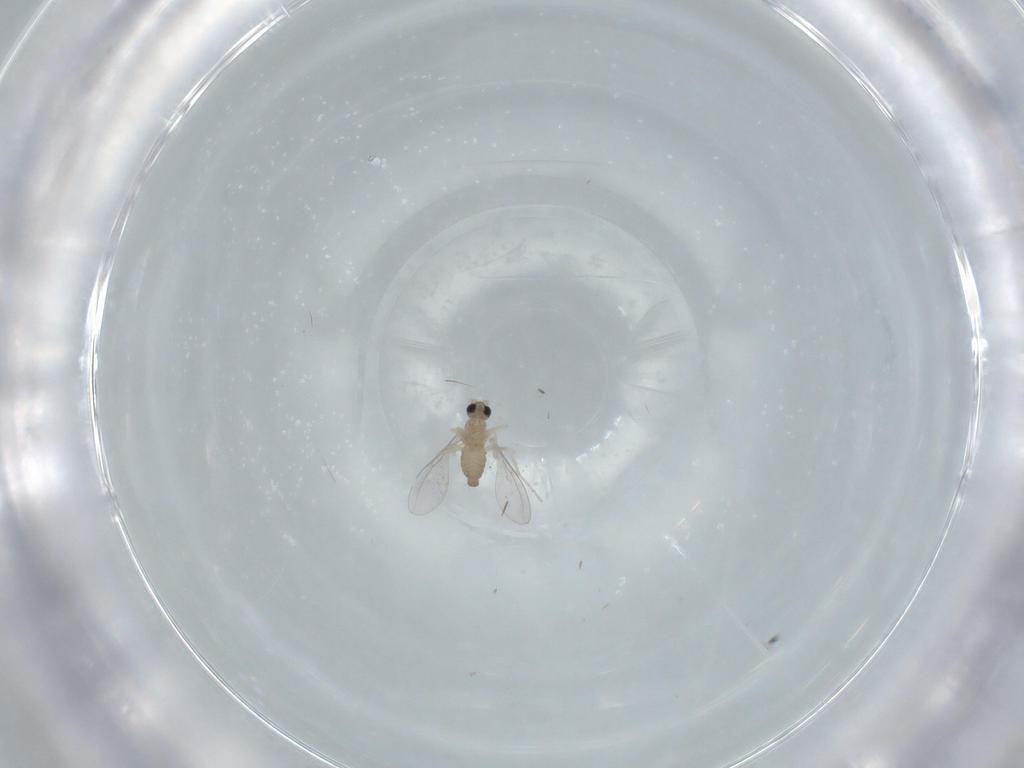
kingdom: Animalia
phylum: Arthropoda
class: Insecta
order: Diptera
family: Cecidomyiidae
